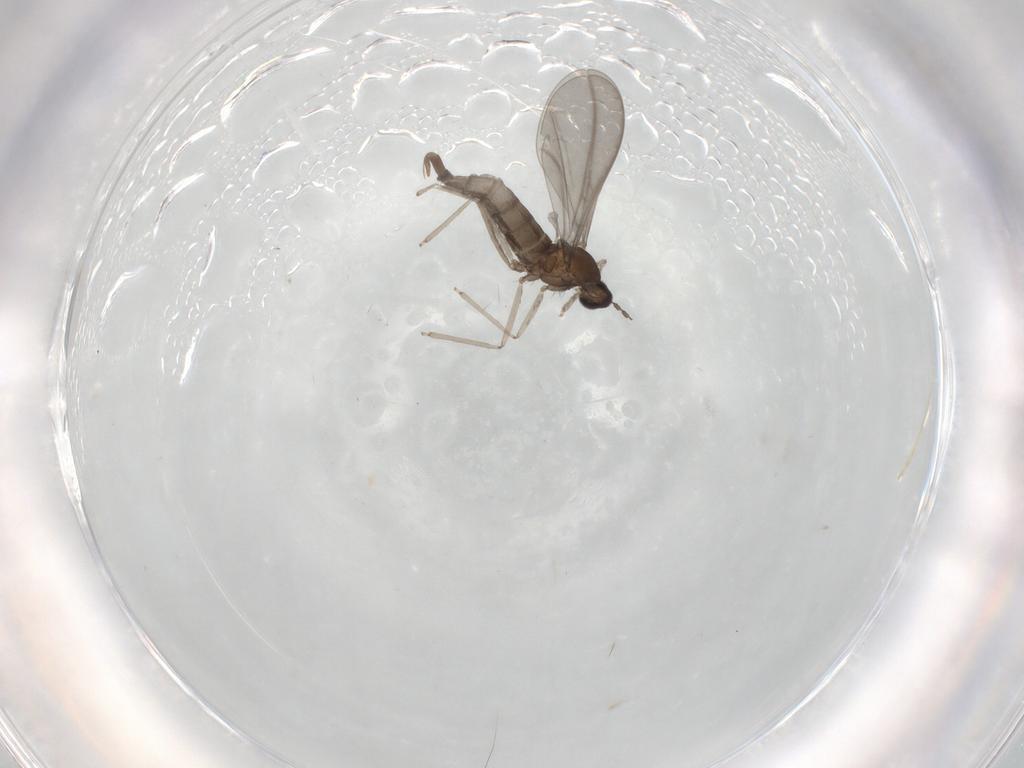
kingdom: Animalia
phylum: Arthropoda
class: Insecta
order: Diptera
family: Cecidomyiidae
